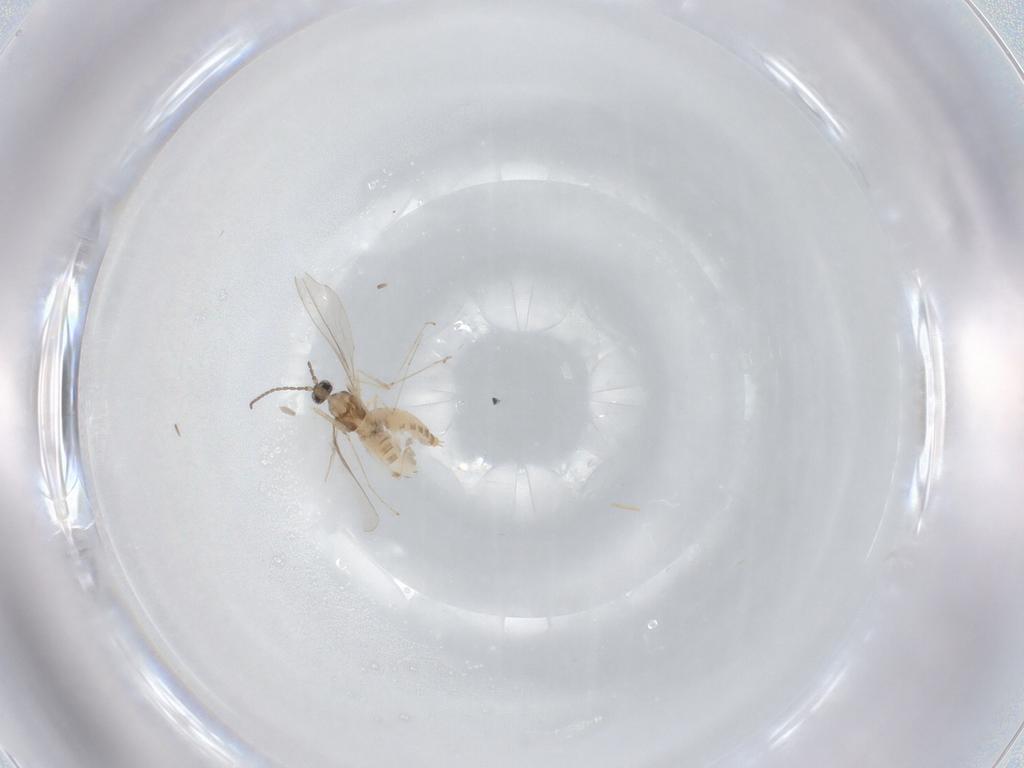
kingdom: Animalia
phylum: Arthropoda
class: Insecta
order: Diptera
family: Cecidomyiidae
